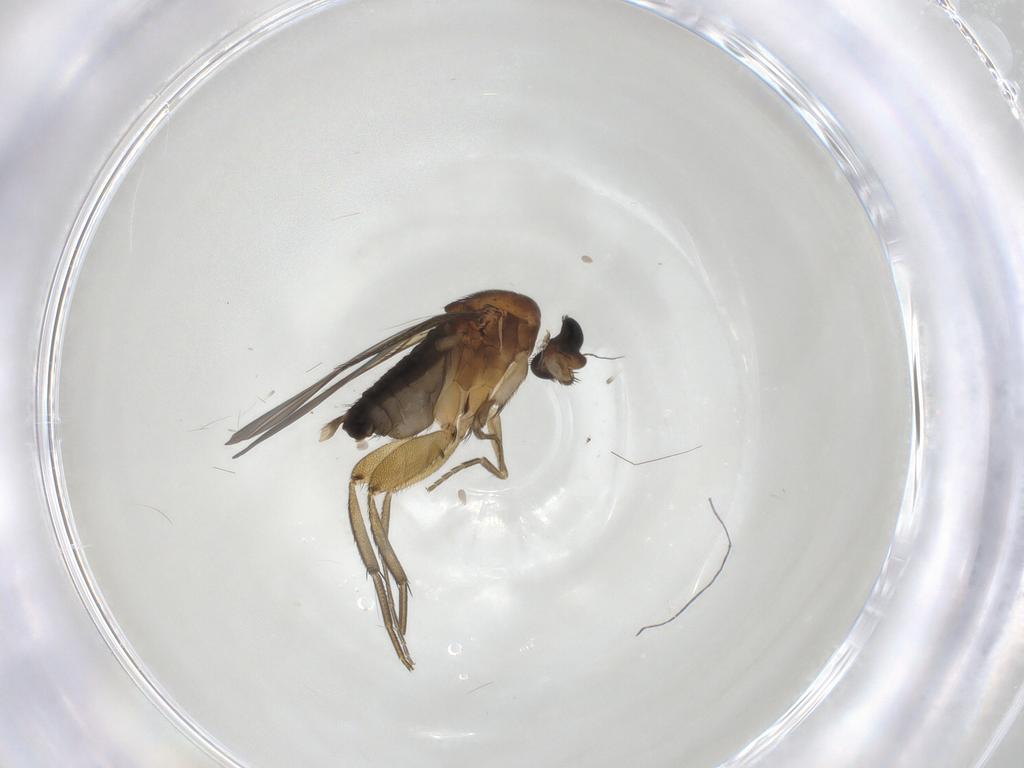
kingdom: Animalia
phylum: Arthropoda
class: Insecta
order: Diptera
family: Phoridae
